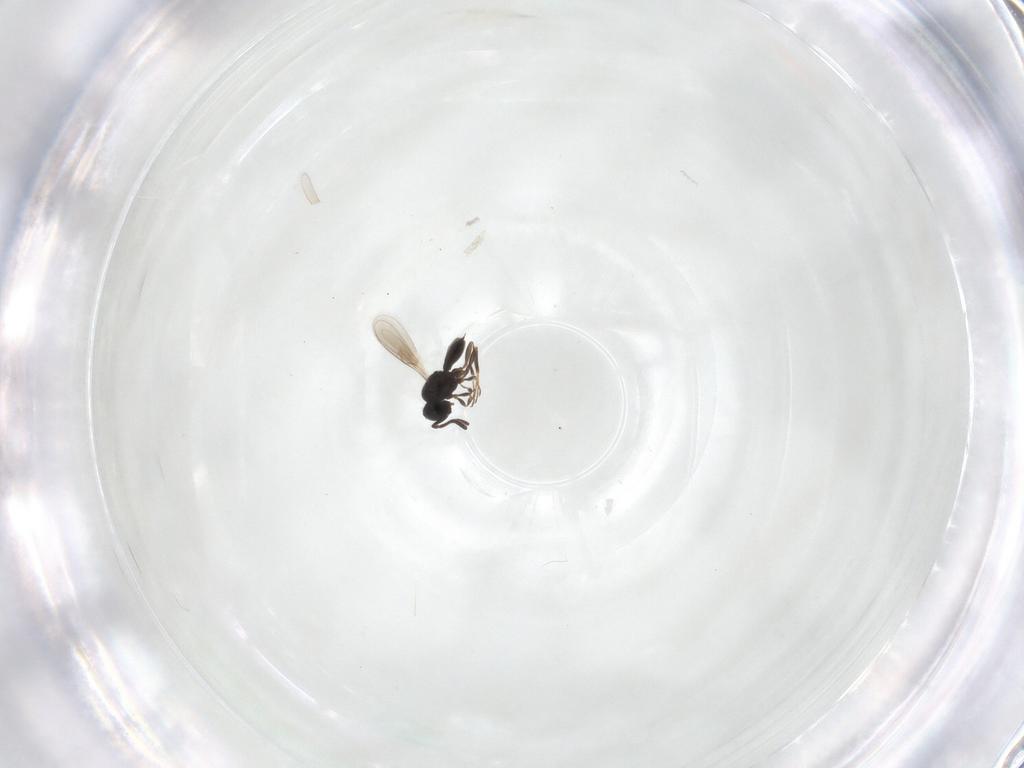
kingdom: Animalia
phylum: Arthropoda
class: Insecta
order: Hymenoptera
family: Scelionidae
